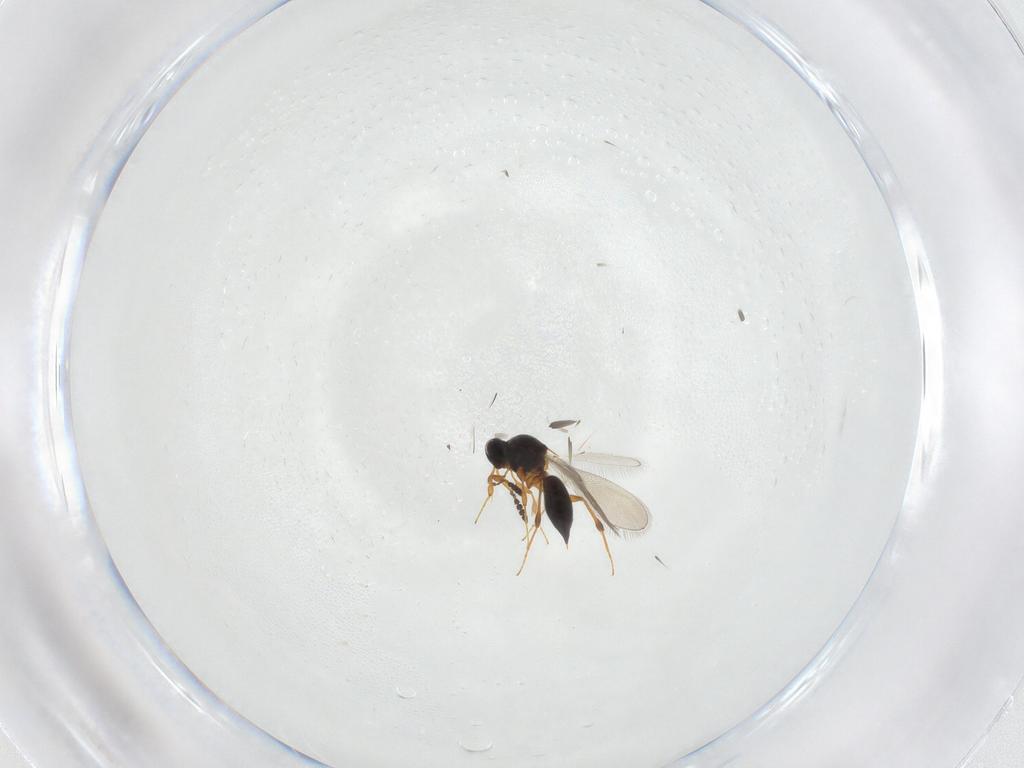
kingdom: Animalia
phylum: Arthropoda
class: Insecta
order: Hymenoptera
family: Platygastridae
